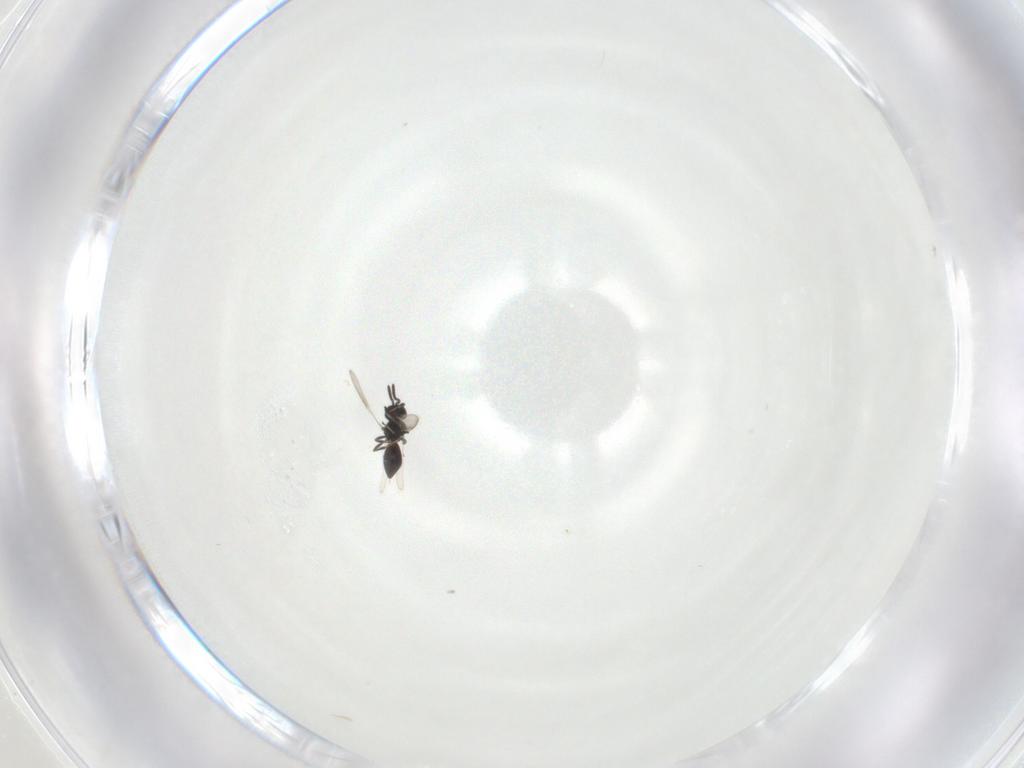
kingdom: Animalia
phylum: Arthropoda
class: Insecta
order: Hymenoptera
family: Scelionidae
